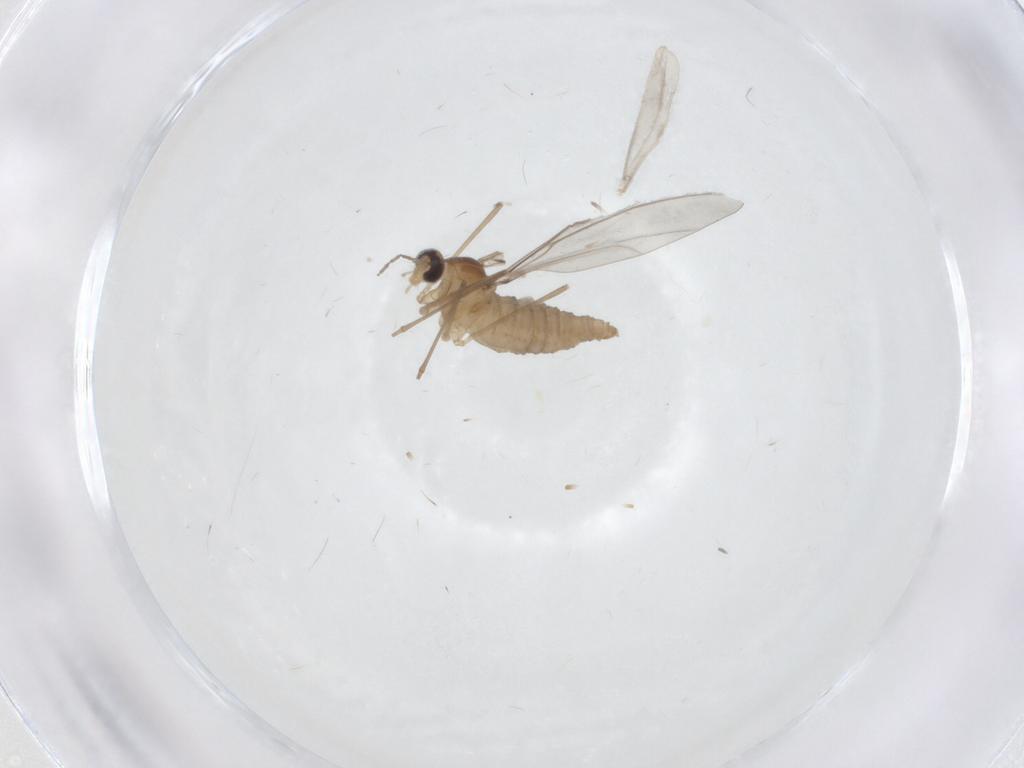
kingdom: Animalia
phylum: Arthropoda
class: Insecta
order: Diptera
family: Cecidomyiidae
